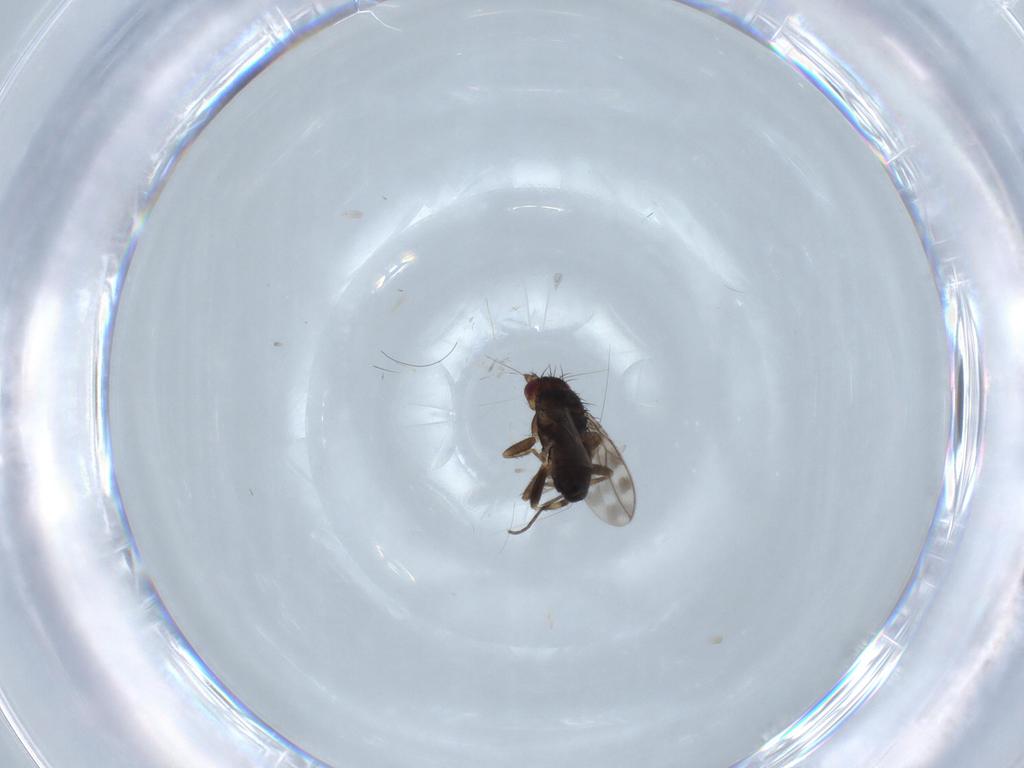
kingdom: Animalia
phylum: Arthropoda
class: Insecta
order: Diptera
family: Sphaeroceridae
